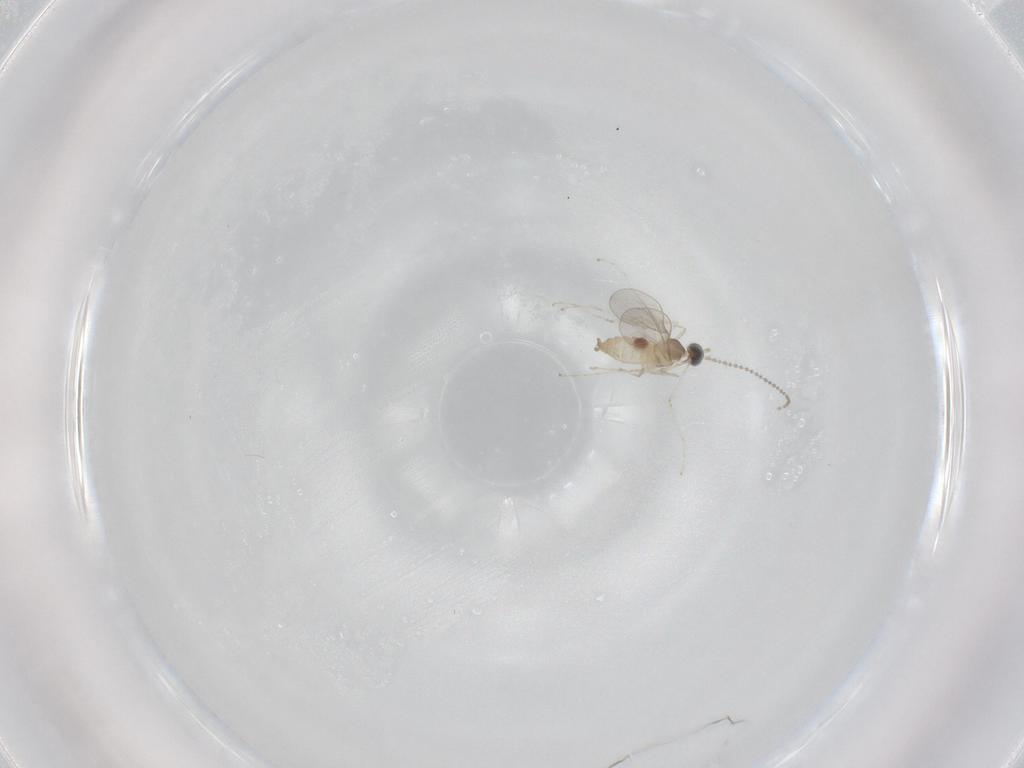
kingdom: Animalia
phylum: Arthropoda
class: Insecta
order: Diptera
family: Cecidomyiidae
